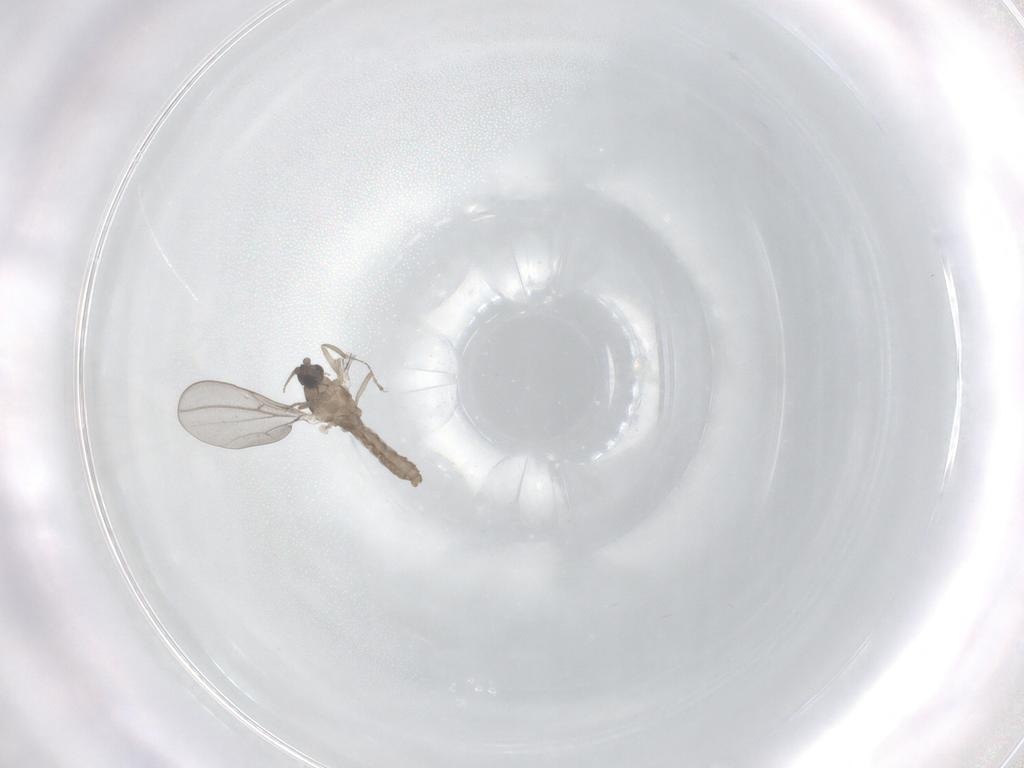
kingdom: Animalia
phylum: Arthropoda
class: Insecta
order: Diptera
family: Cecidomyiidae
